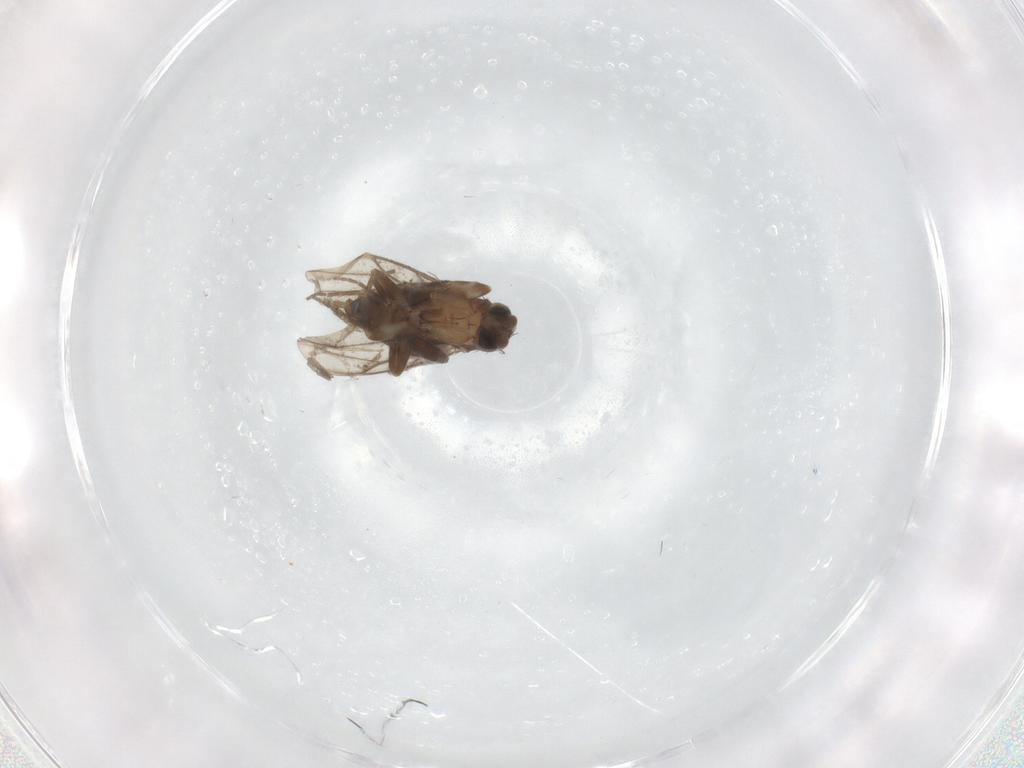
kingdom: Animalia
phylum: Arthropoda
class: Insecta
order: Diptera
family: Cecidomyiidae
